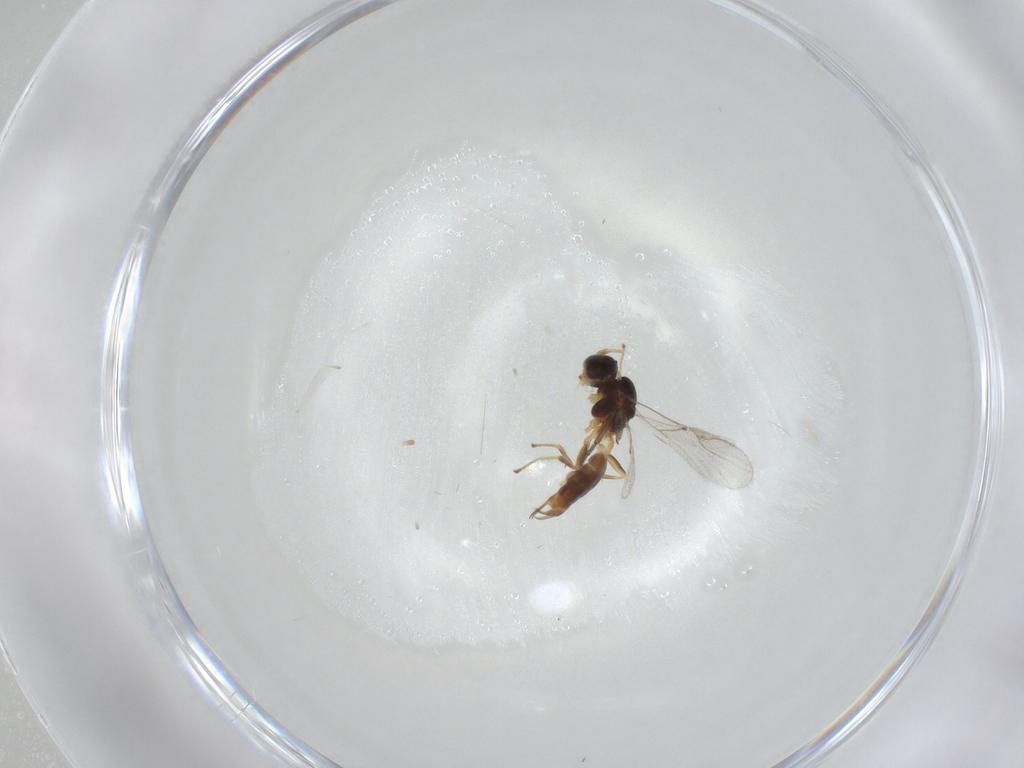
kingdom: Animalia
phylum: Arthropoda
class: Insecta
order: Hymenoptera
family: Braconidae
